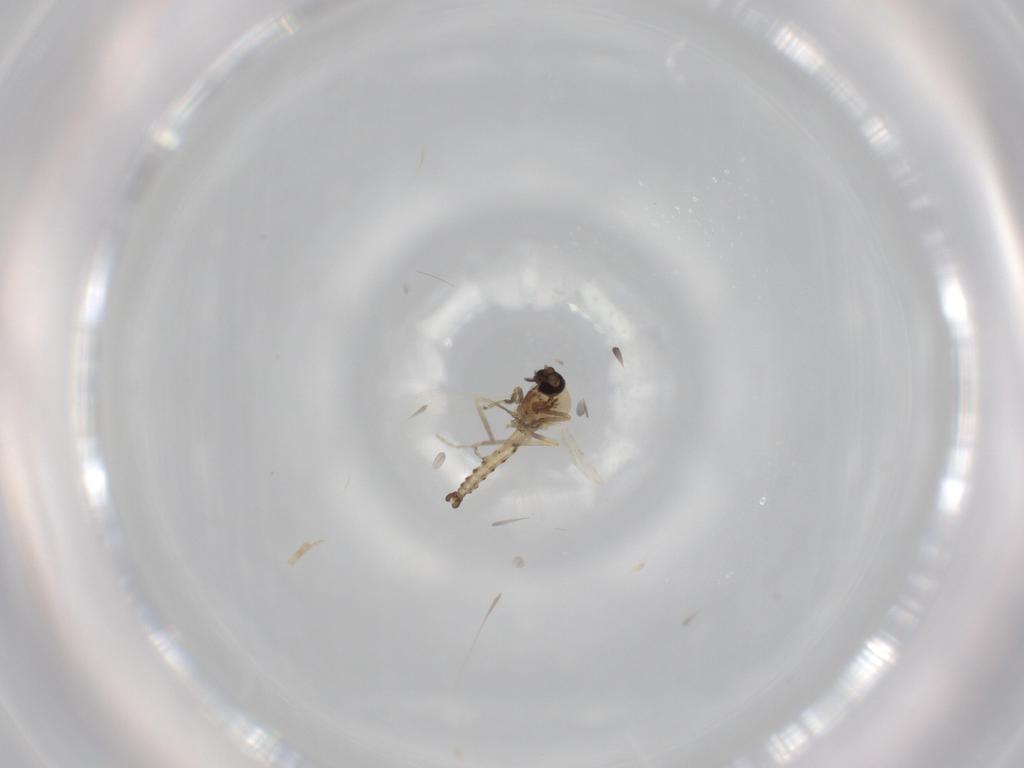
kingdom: Animalia
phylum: Arthropoda
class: Insecta
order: Diptera
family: Ceratopogonidae
